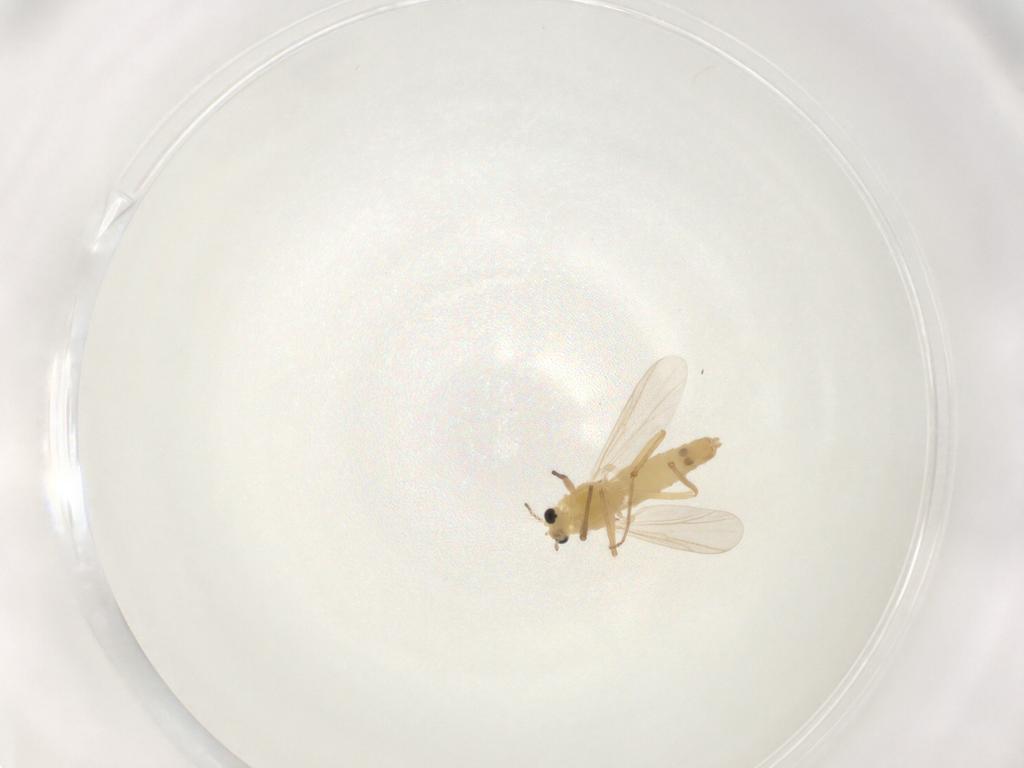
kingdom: Animalia
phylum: Arthropoda
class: Insecta
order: Diptera
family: Chironomidae
